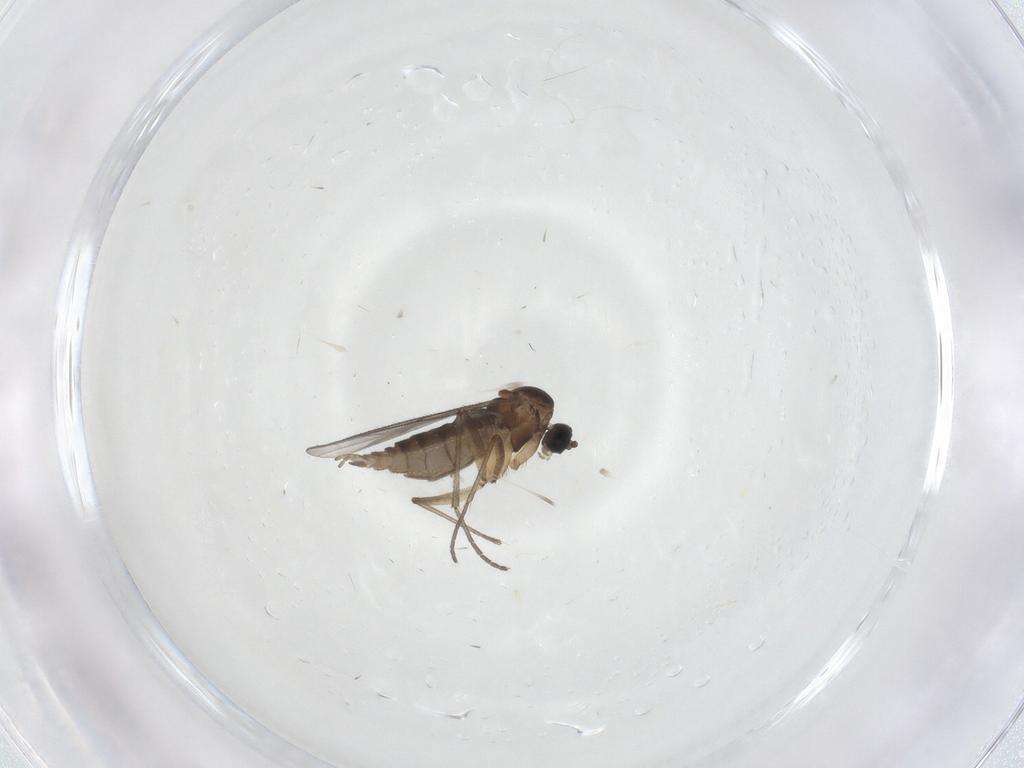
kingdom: Animalia
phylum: Arthropoda
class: Insecta
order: Diptera
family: Sciaridae
